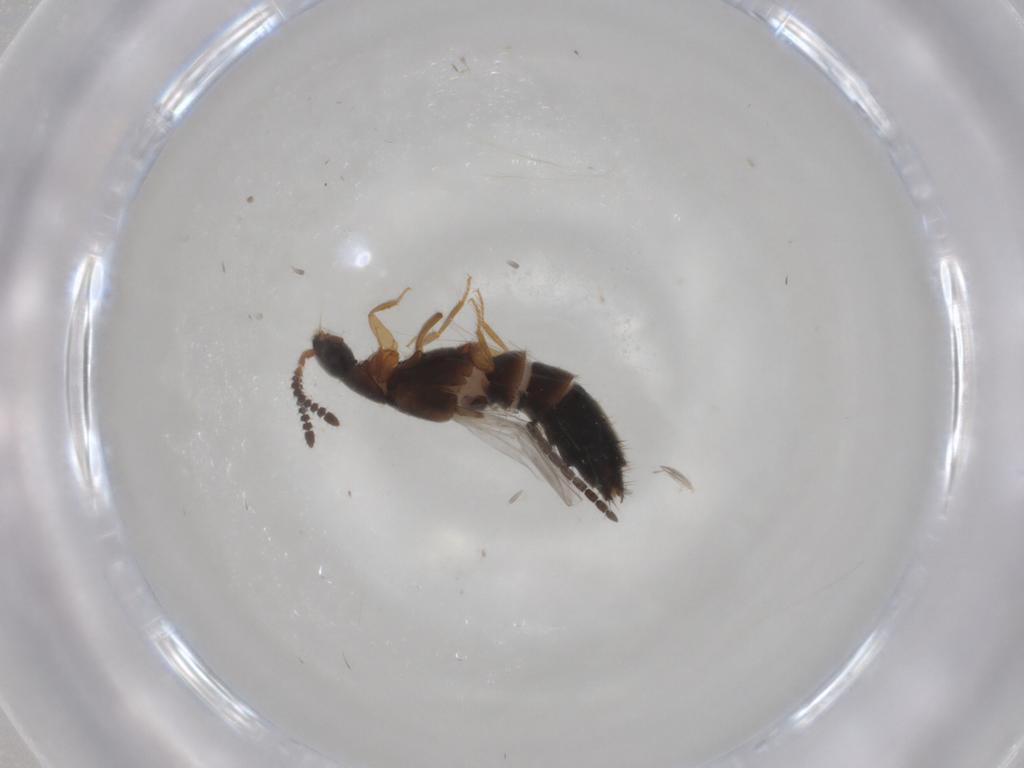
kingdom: Animalia
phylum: Arthropoda
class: Insecta
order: Coleoptera
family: Staphylinidae
